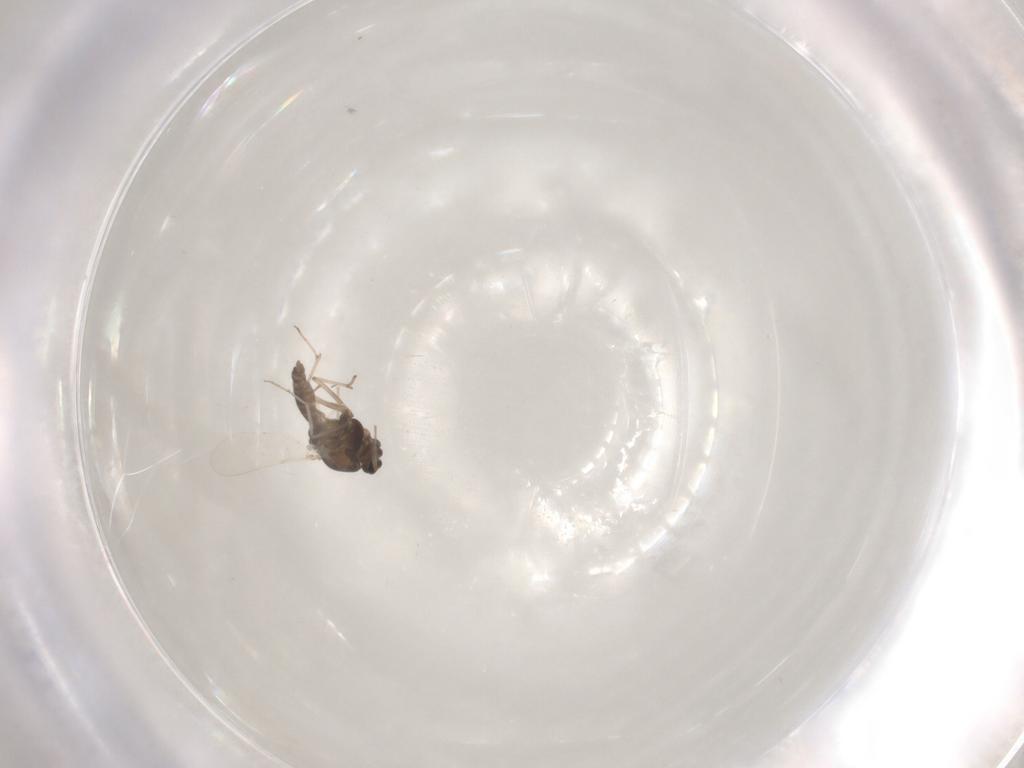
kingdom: Animalia
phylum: Arthropoda
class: Insecta
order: Diptera
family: Chironomidae
